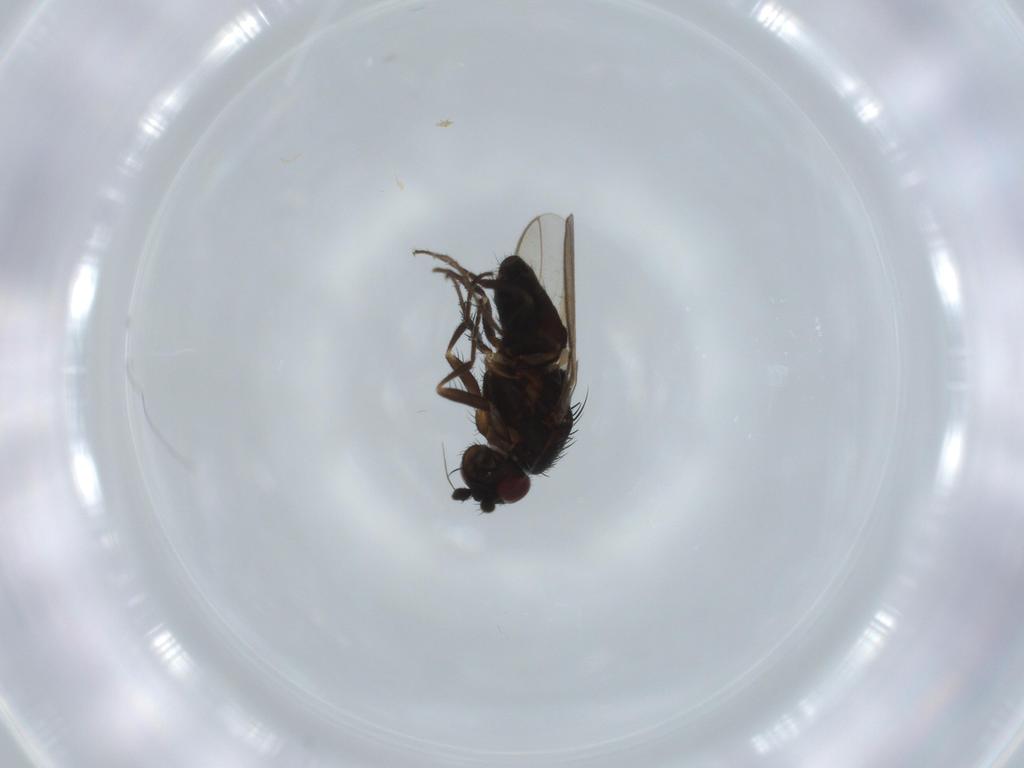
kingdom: Animalia
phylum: Arthropoda
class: Insecta
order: Diptera
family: Sphaeroceridae
